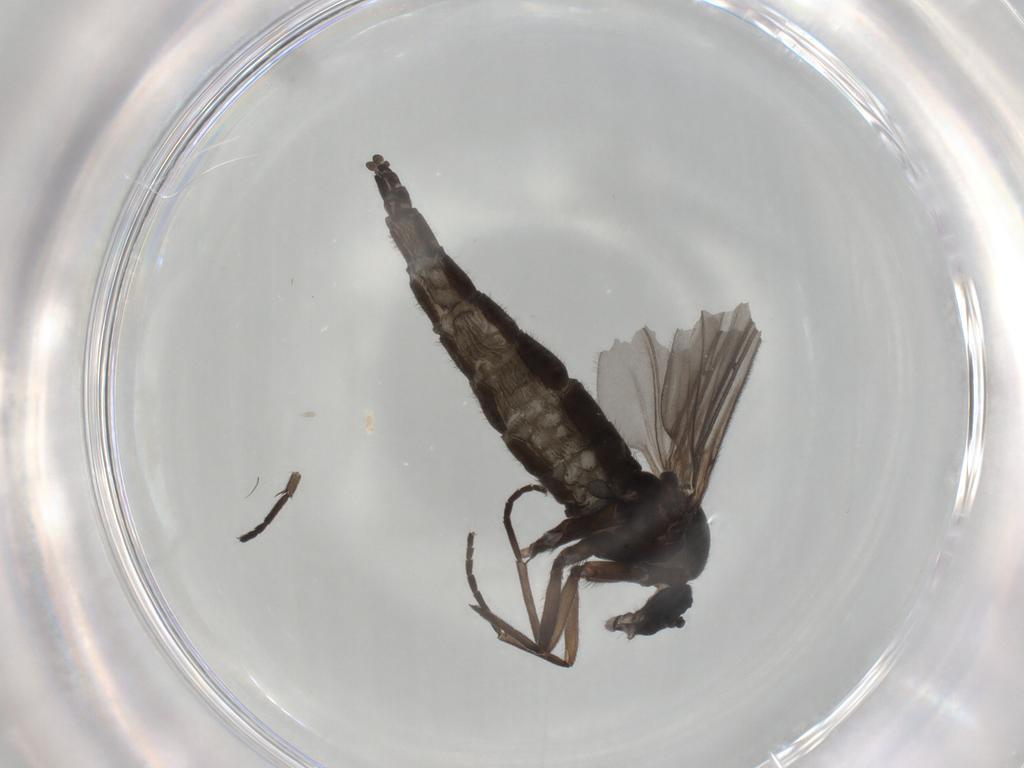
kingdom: Animalia
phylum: Arthropoda
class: Insecta
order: Diptera
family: Sciaridae
